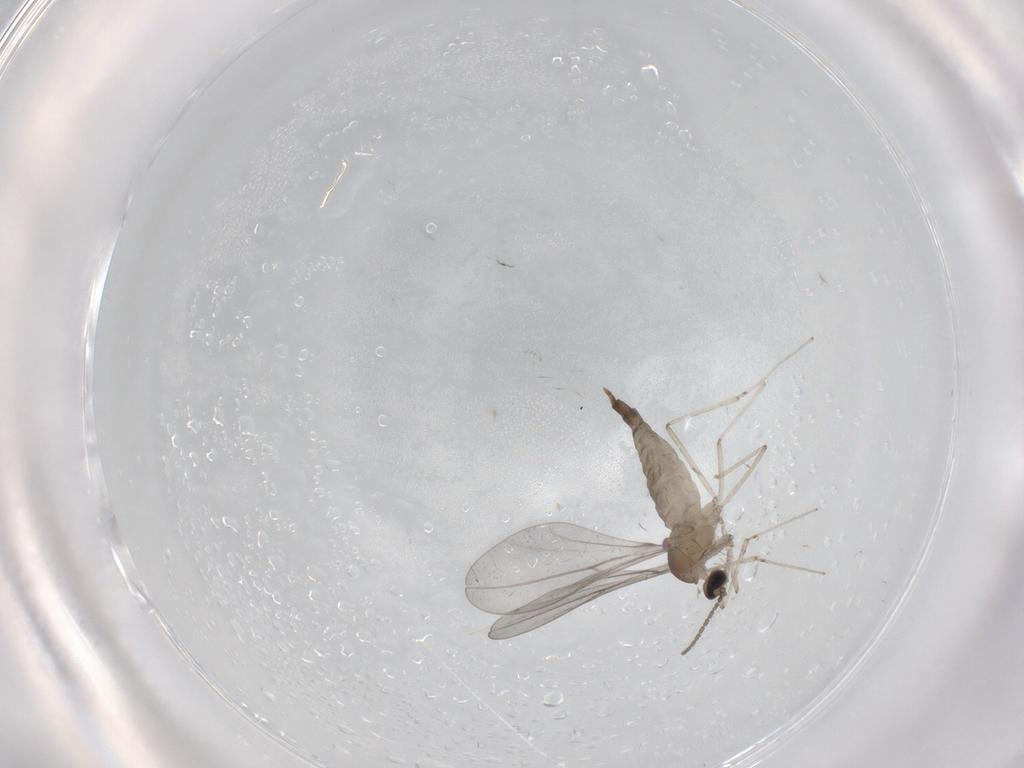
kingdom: Animalia
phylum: Arthropoda
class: Insecta
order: Diptera
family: Cecidomyiidae
